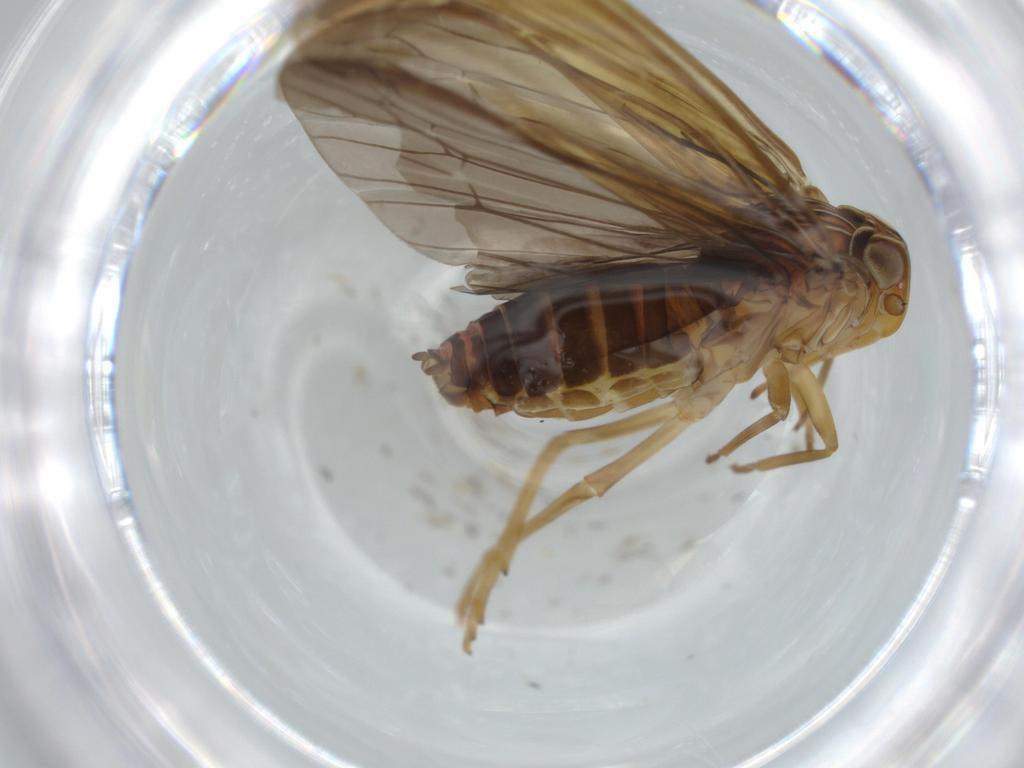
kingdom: Animalia
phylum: Arthropoda
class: Insecta
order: Hemiptera
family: Achilidae
